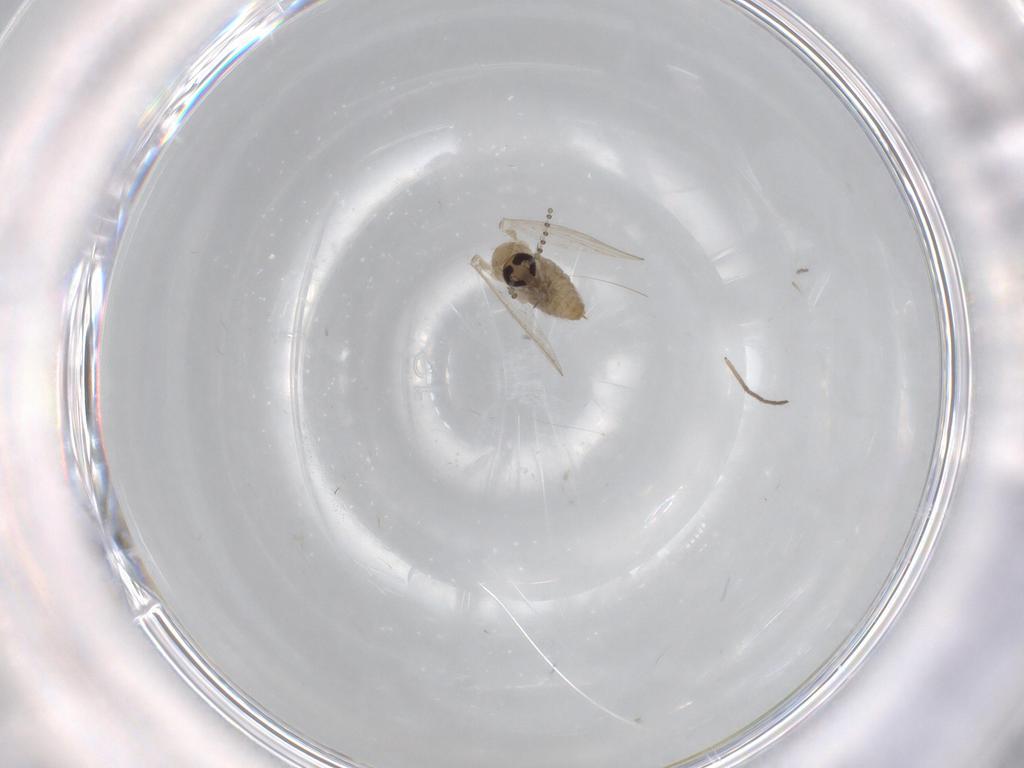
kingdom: Animalia
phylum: Arthropoda
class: Insecta
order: Diptera
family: Psychodidae
